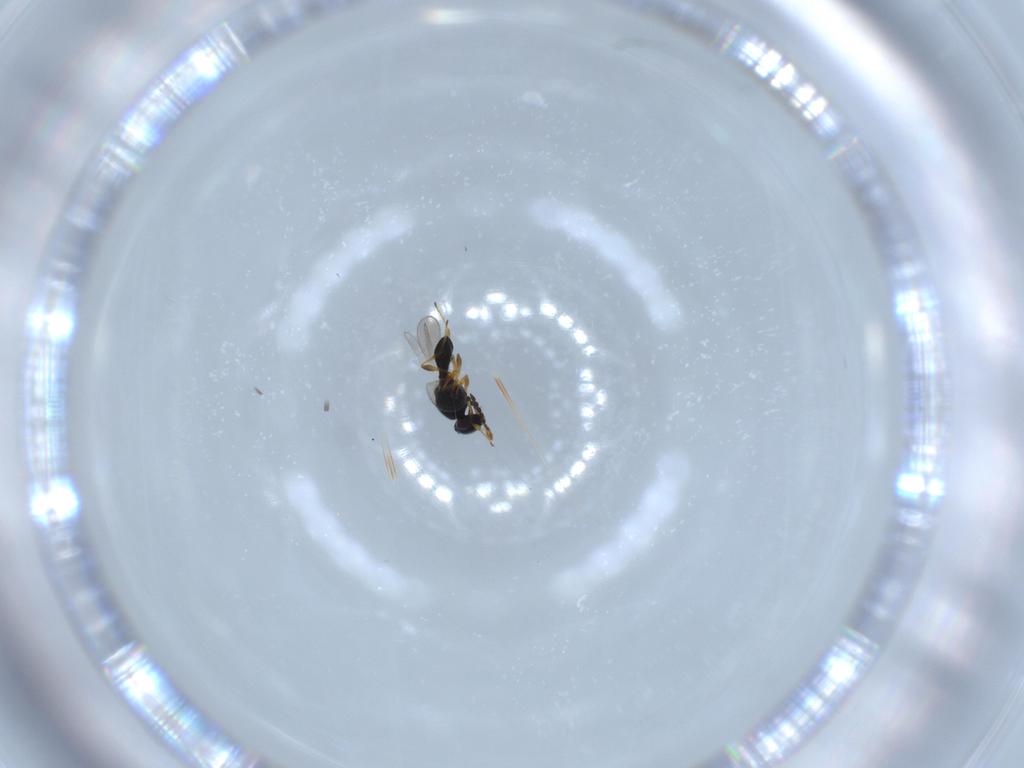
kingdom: Animalia
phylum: Arthropoda
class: Insecta
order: Hymenoptera
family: Platygastridae
